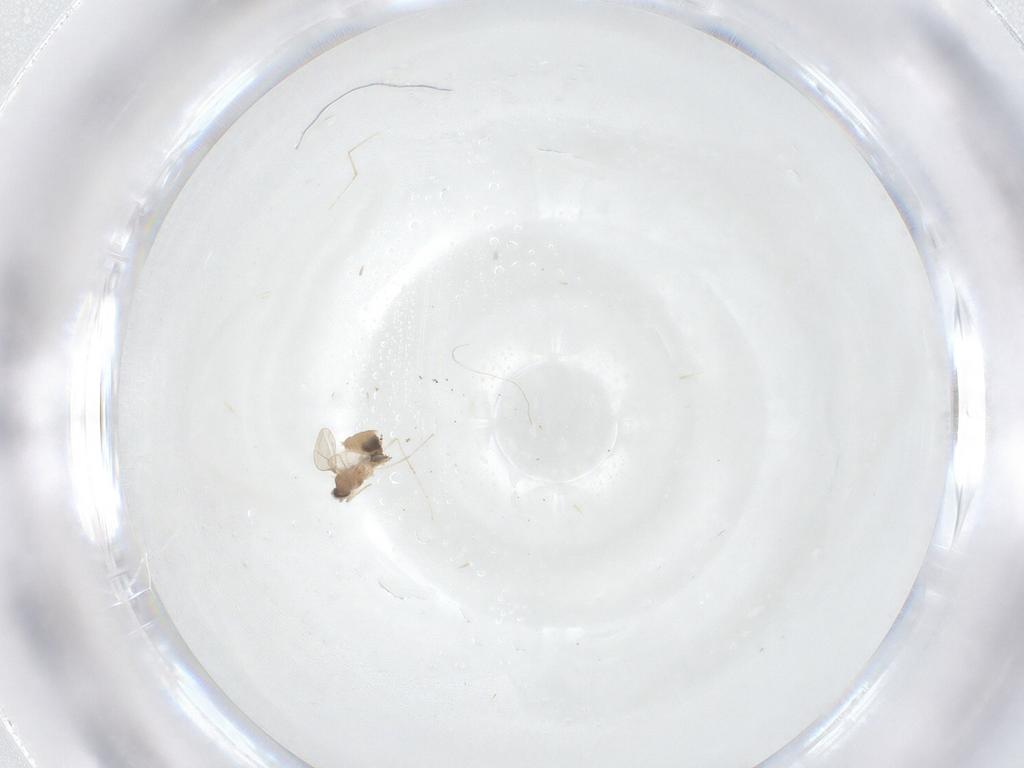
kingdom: Animalia
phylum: Arthropoda
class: Insecta
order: Diptera
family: Cecidomyiidae
